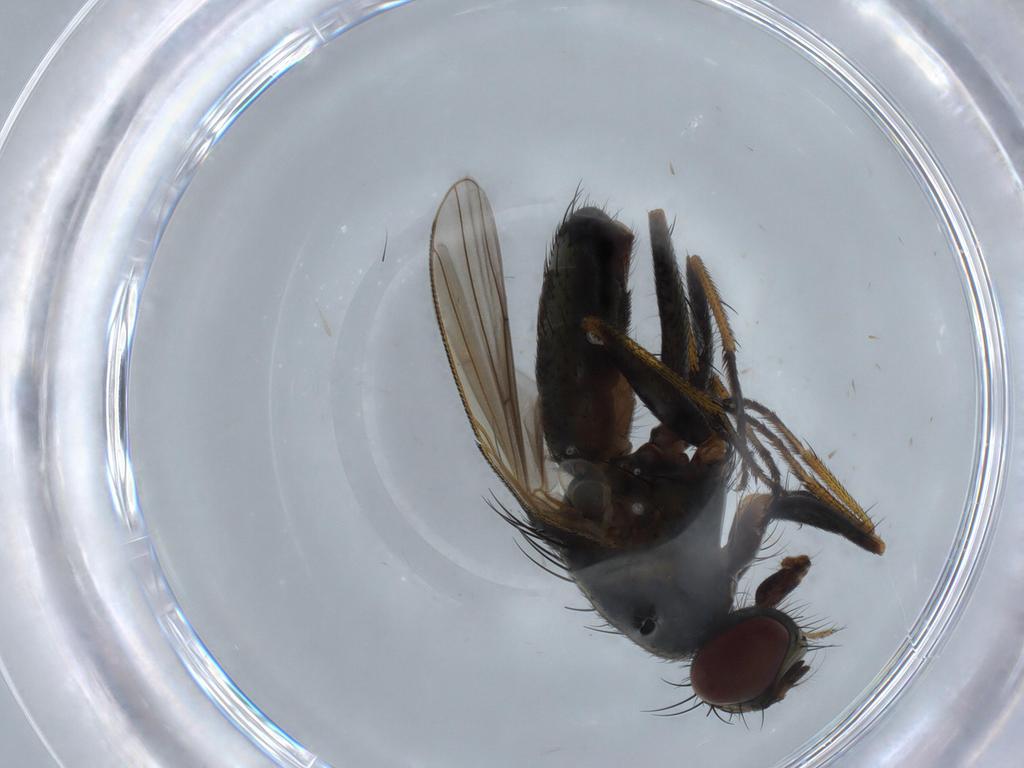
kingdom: Animalia
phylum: Arthropoda
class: Insecta
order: Diptera
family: Muscidae
